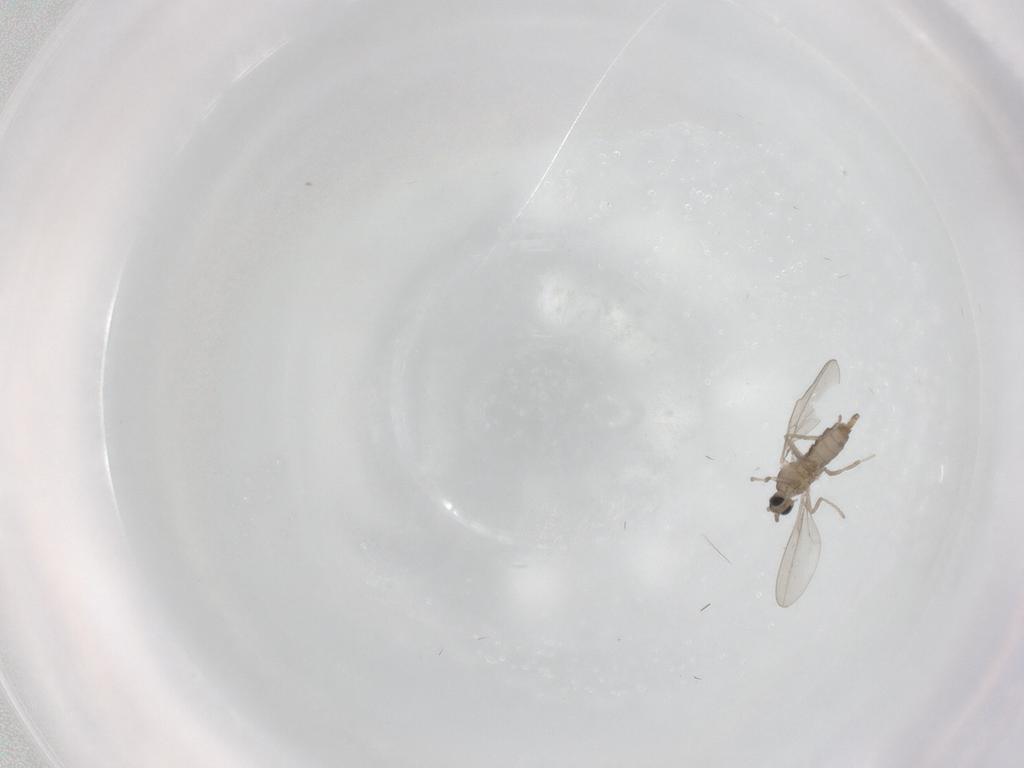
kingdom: Animalia
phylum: Arthropoda
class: Insecta
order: Diptera
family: Cecidomyiidae
